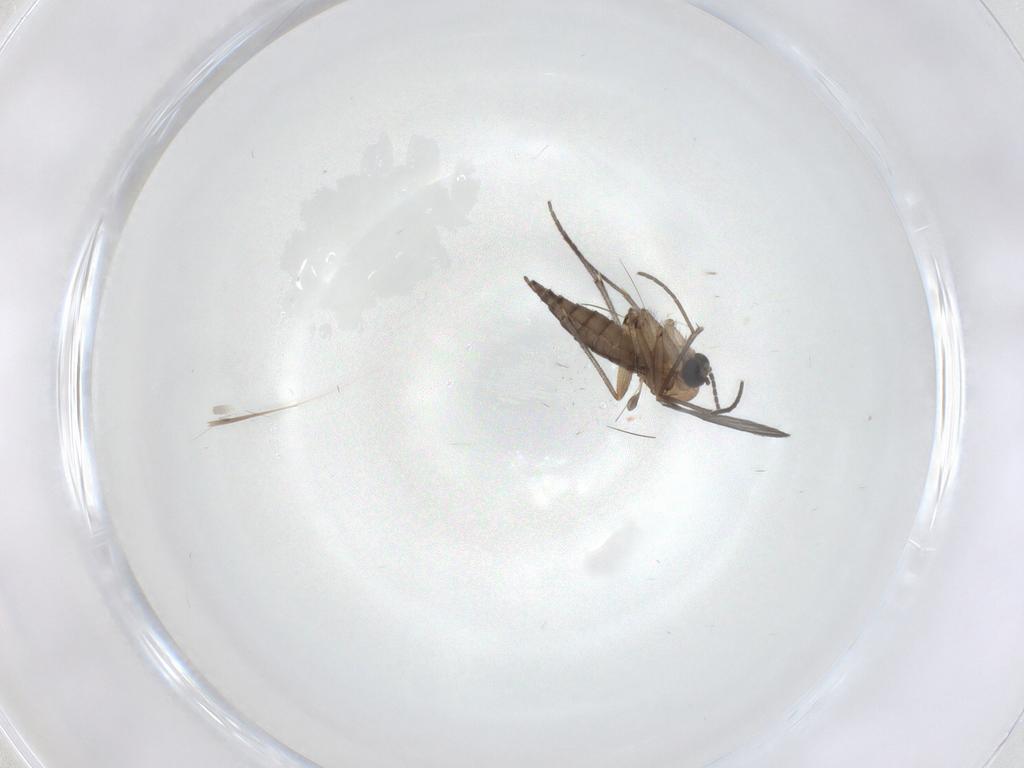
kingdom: Animalia
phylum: Arthropoda
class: Insecta
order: Diptera
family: Sciaridae
